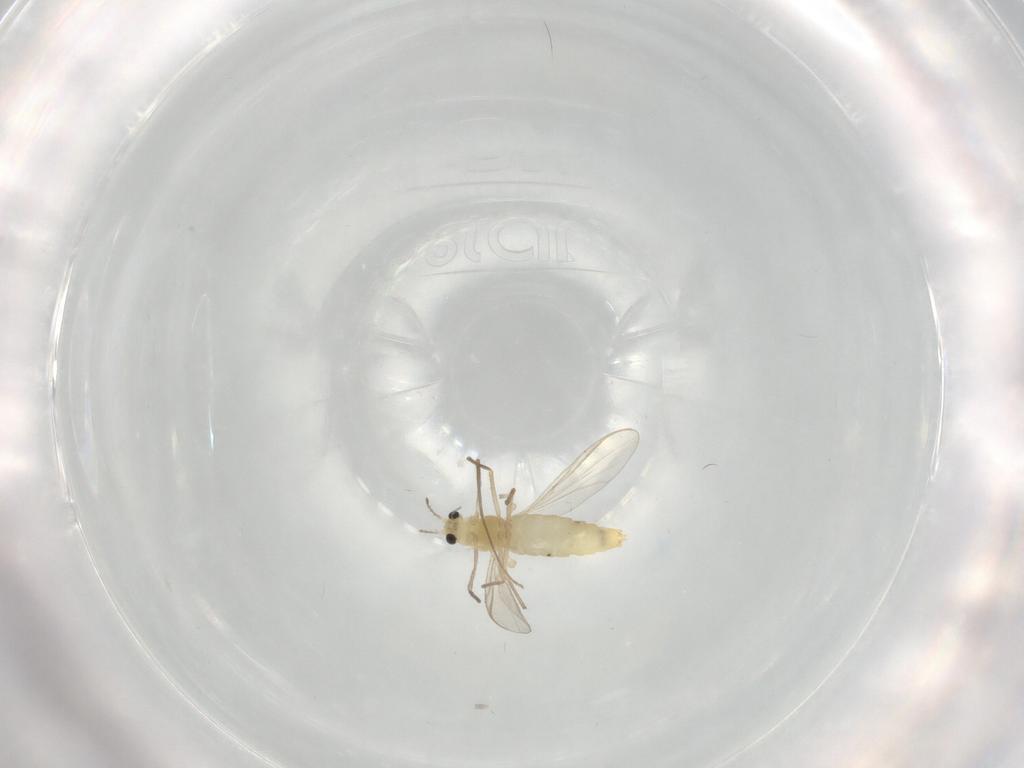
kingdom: Animalia
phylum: Arthropoda
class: Insecta
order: Diptera
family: Chironomidae
